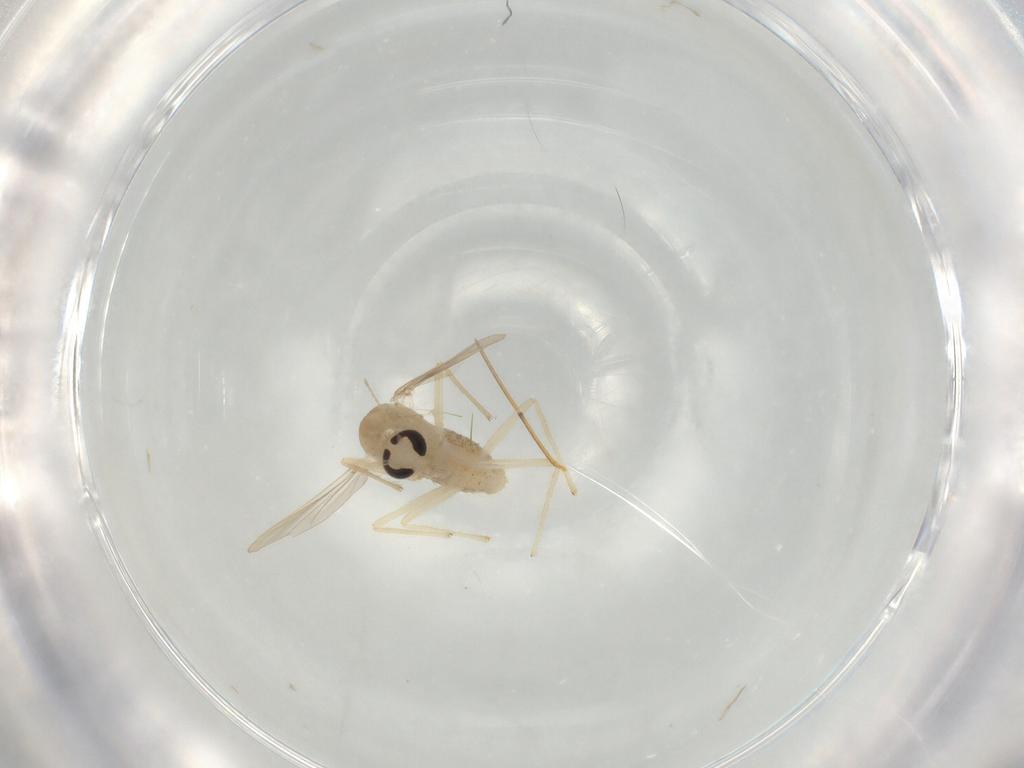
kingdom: Animalia
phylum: Arthropoda
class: Insecta
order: Diptera
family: Chironomidae
